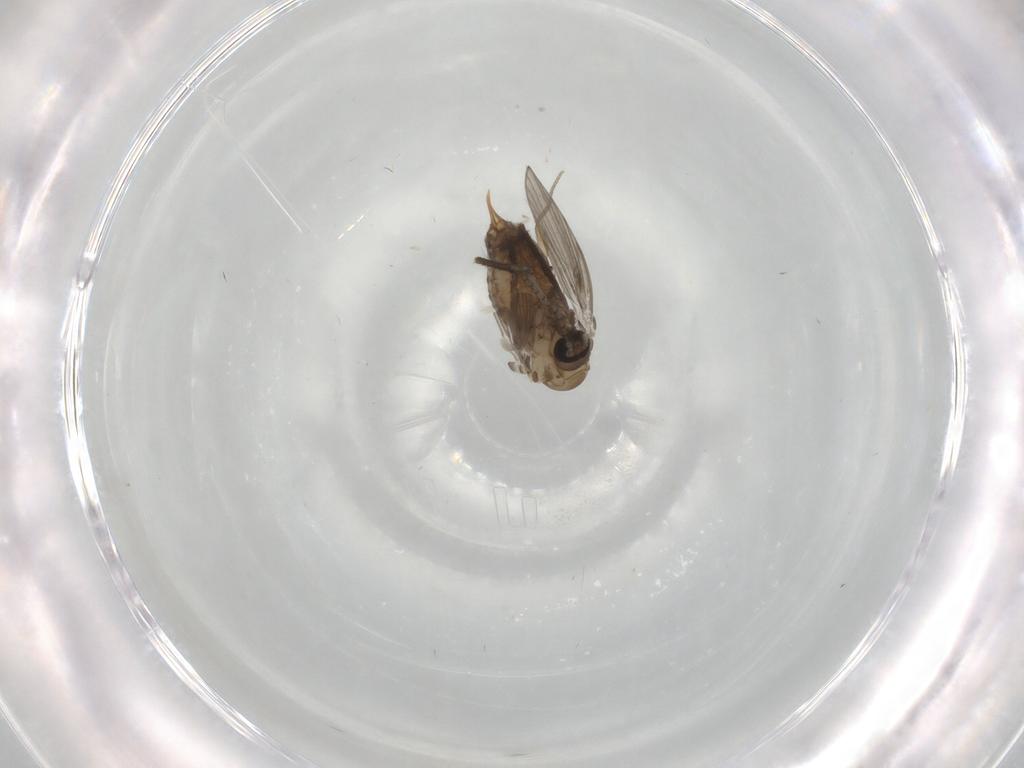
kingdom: Animalia
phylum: Arthropoda
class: Insecta
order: Diptera
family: Psychodidae
